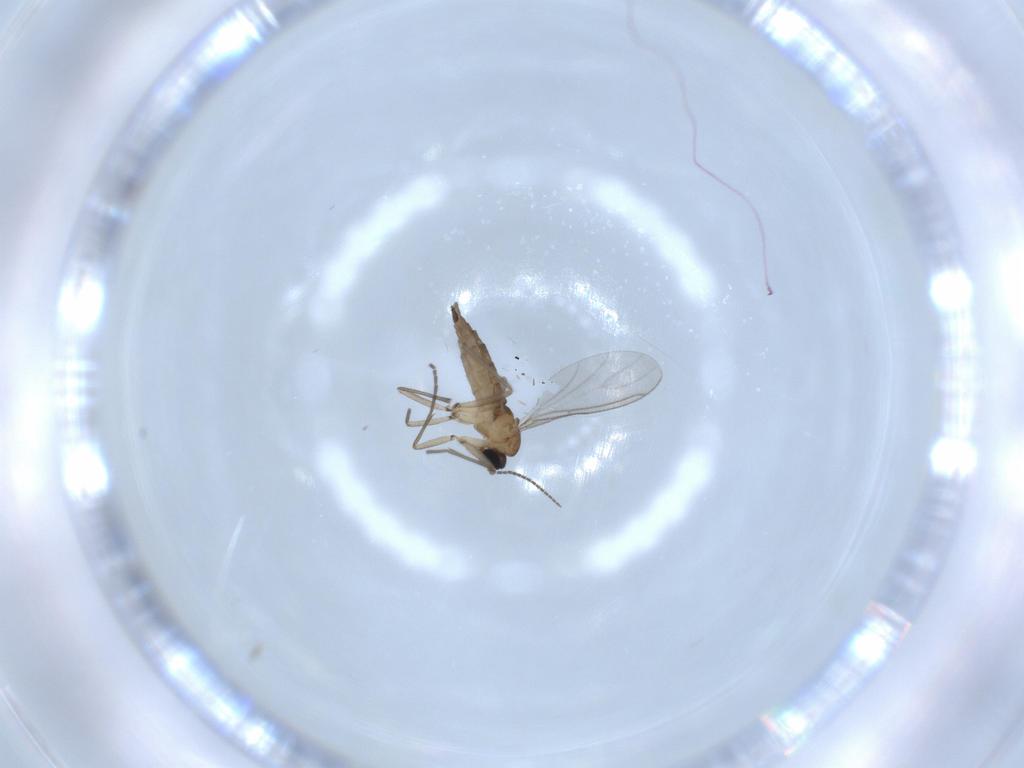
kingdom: Animalia
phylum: Arthropoda
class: Insecta
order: Diptera
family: Sciaridae
